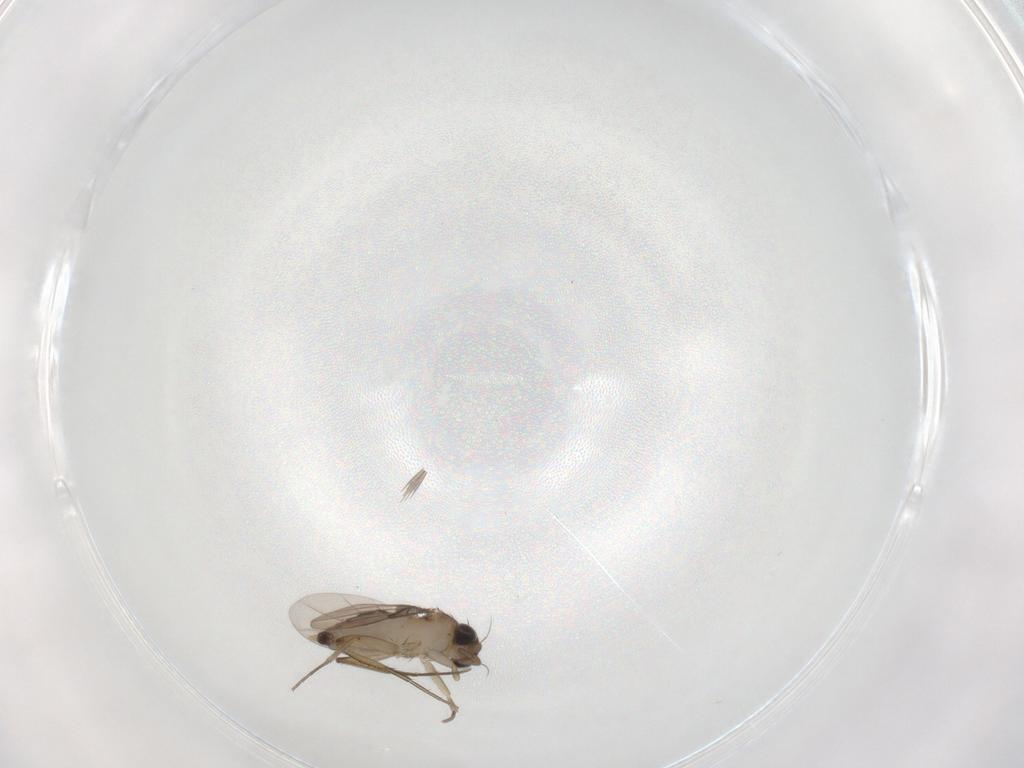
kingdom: Animalia
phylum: Arthropoda
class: Insecta
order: Diptera
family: Phoridae
